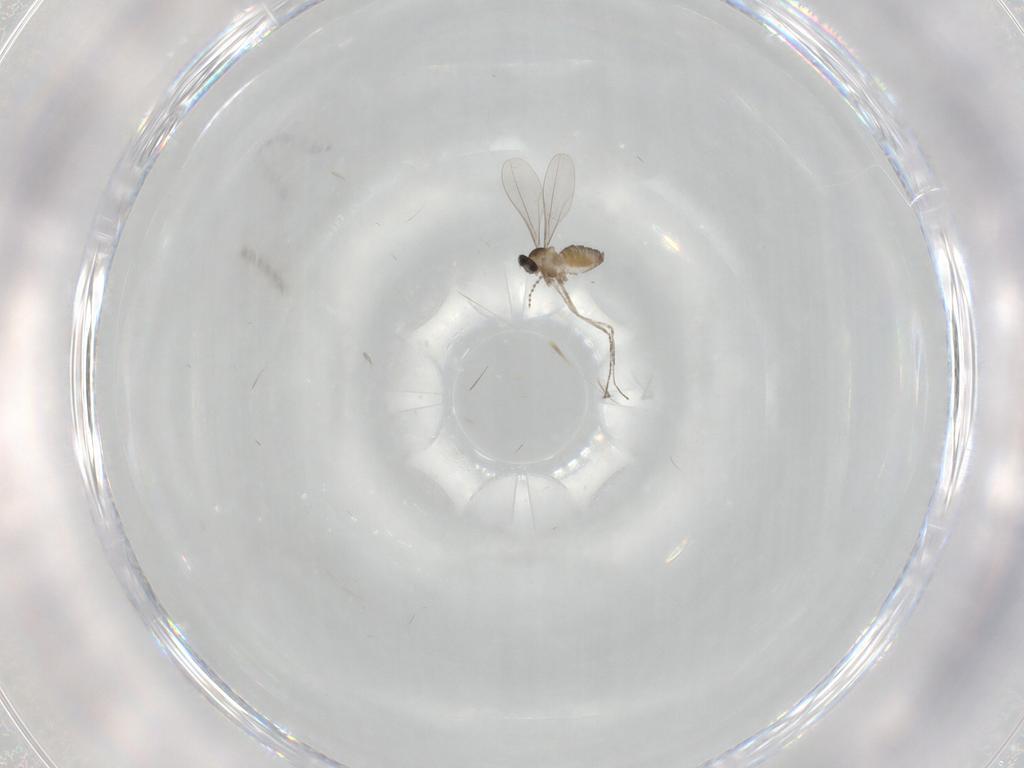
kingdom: Animalia
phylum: Arthropoda
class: Insecta
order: Diptera
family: Cecidomyiidae
